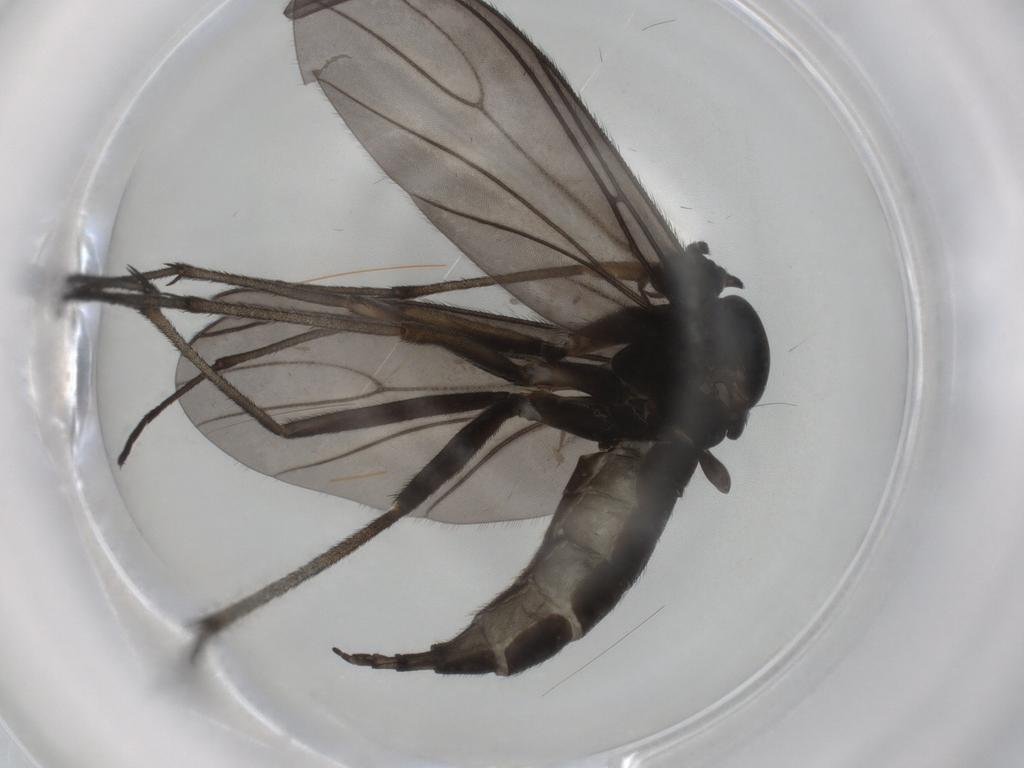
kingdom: Animalia
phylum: Arthropoda
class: Insecta
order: Diptera
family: Sciaridae
